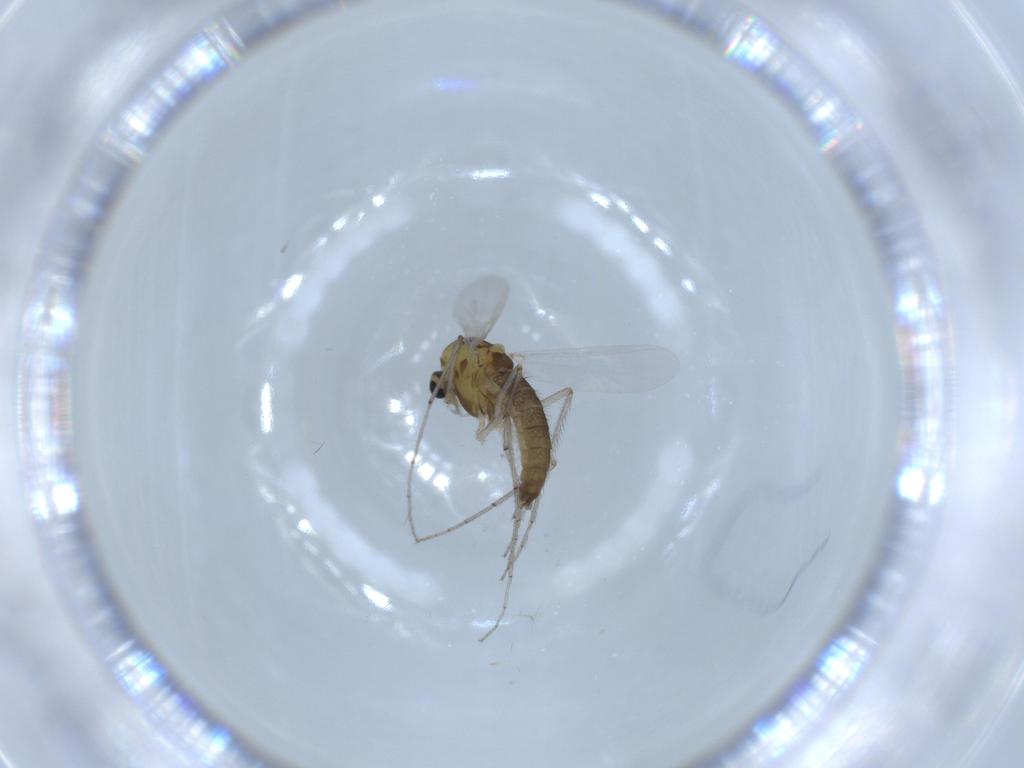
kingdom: Animalia
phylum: Arthropoda
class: Insecta
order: Diptera
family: Chironomidae
